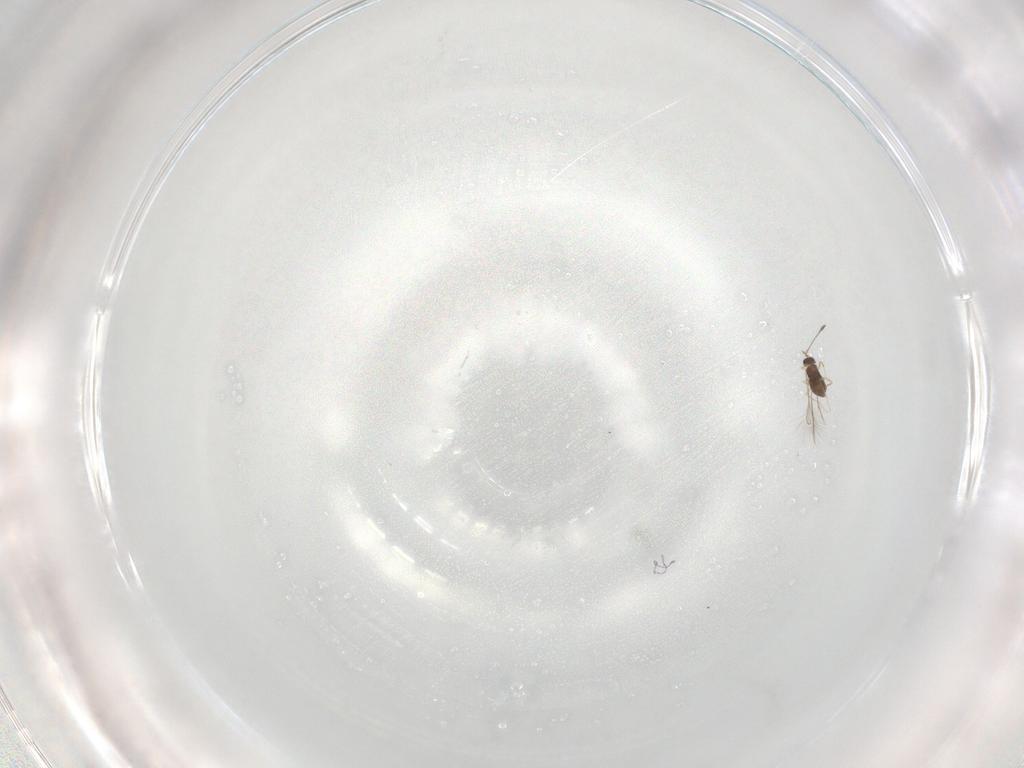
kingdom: Animalia
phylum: Arthropoda
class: Insecta
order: Hymenoptera
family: Mymaridae
